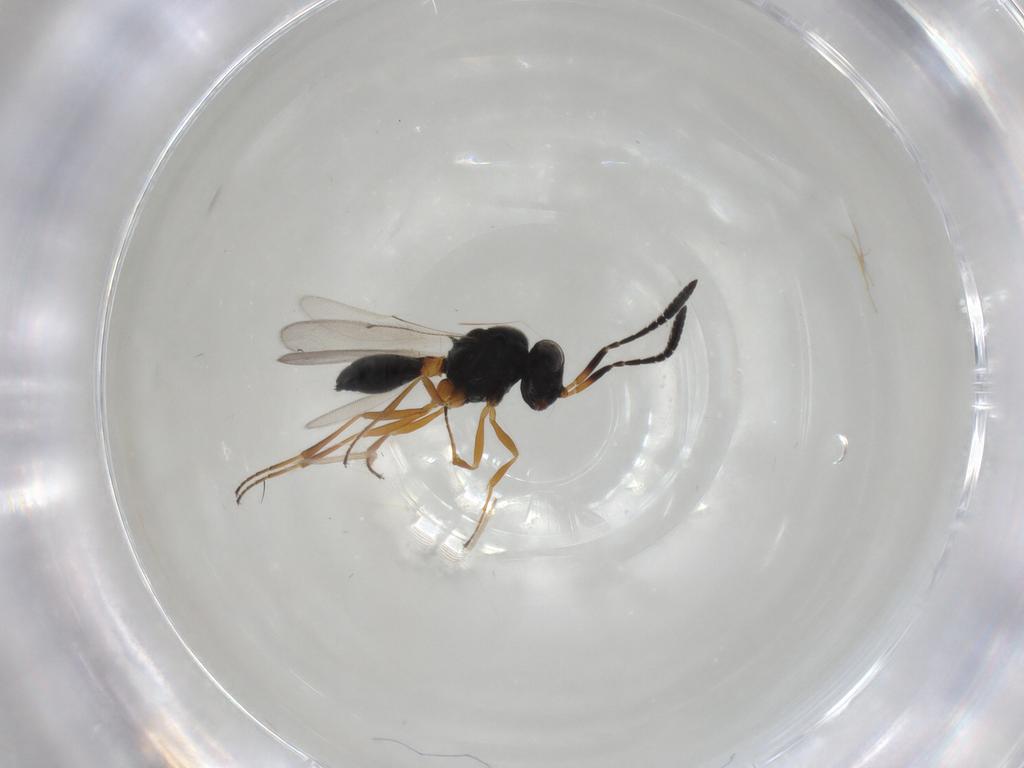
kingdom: Animalia
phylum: Arthropoda
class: Insecta
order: Hymenoptera
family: Scelionidae
